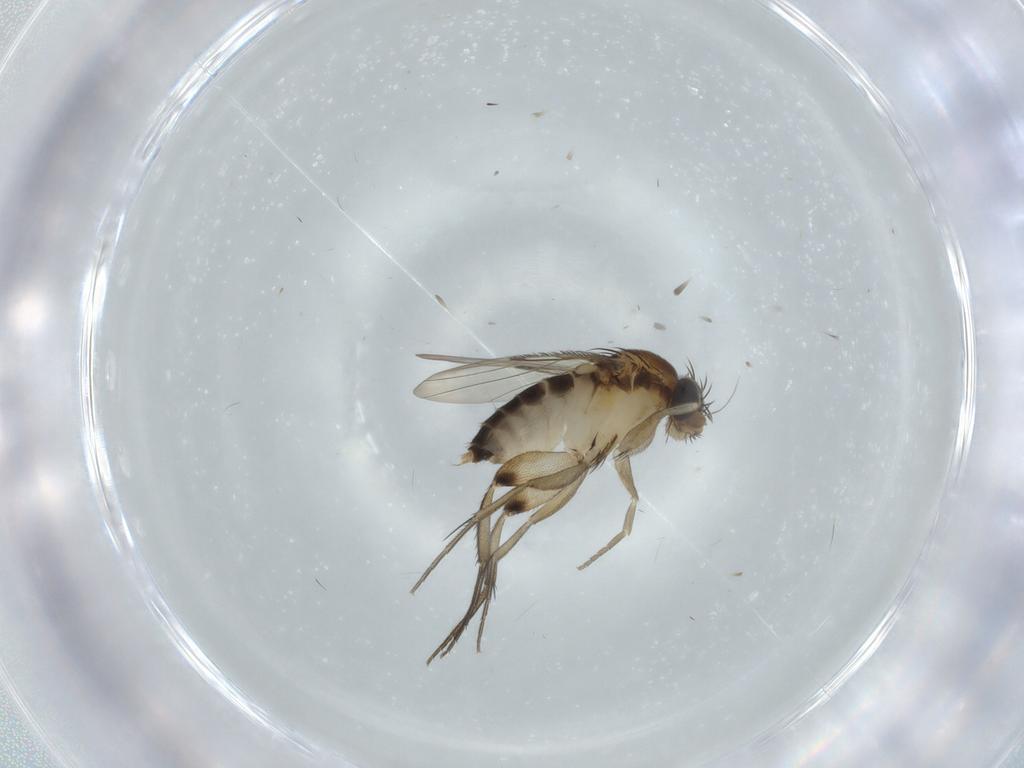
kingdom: Animalia
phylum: Arthropoda
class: Insecta
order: Diptera
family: Phoridae
